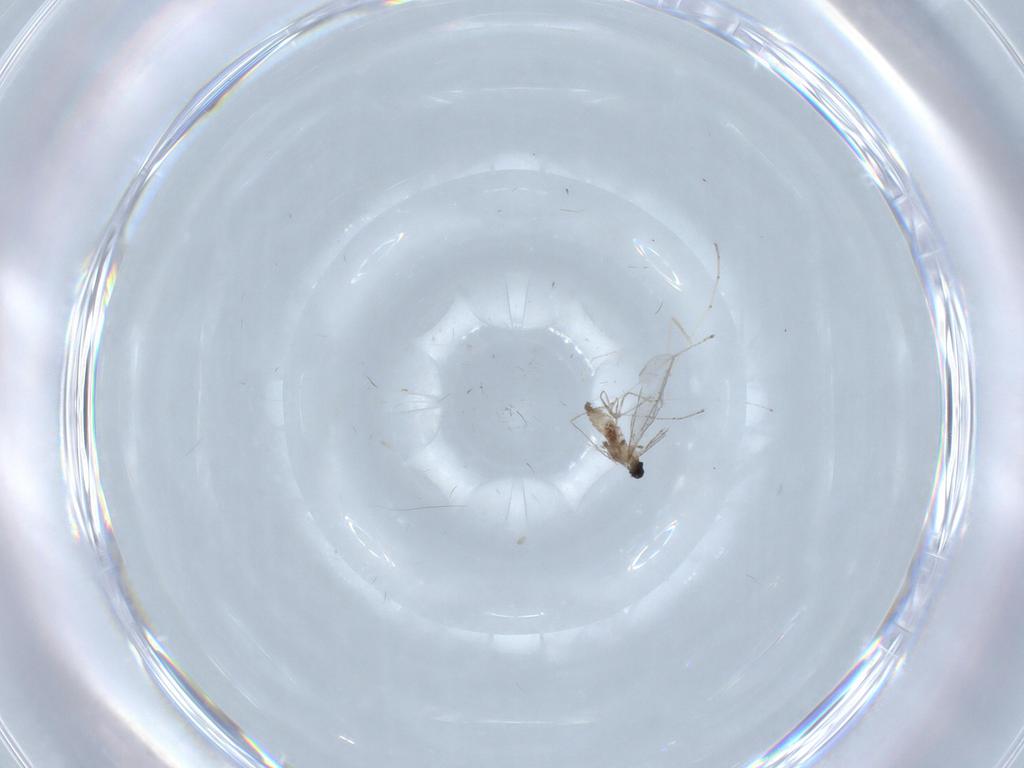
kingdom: Animalia
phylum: Arthropoda
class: Insecta
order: Diptera
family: Cecidomyiidae
